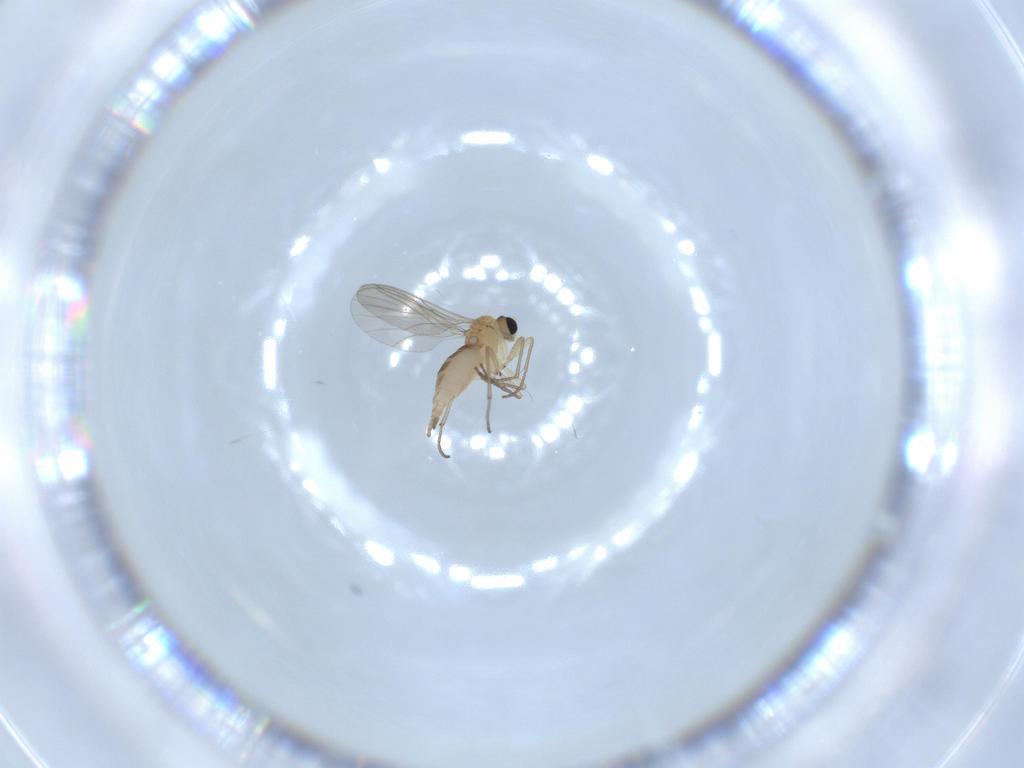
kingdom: Animalia
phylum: Arthropoda
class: Insecta
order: Diptera
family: Sciaridae
